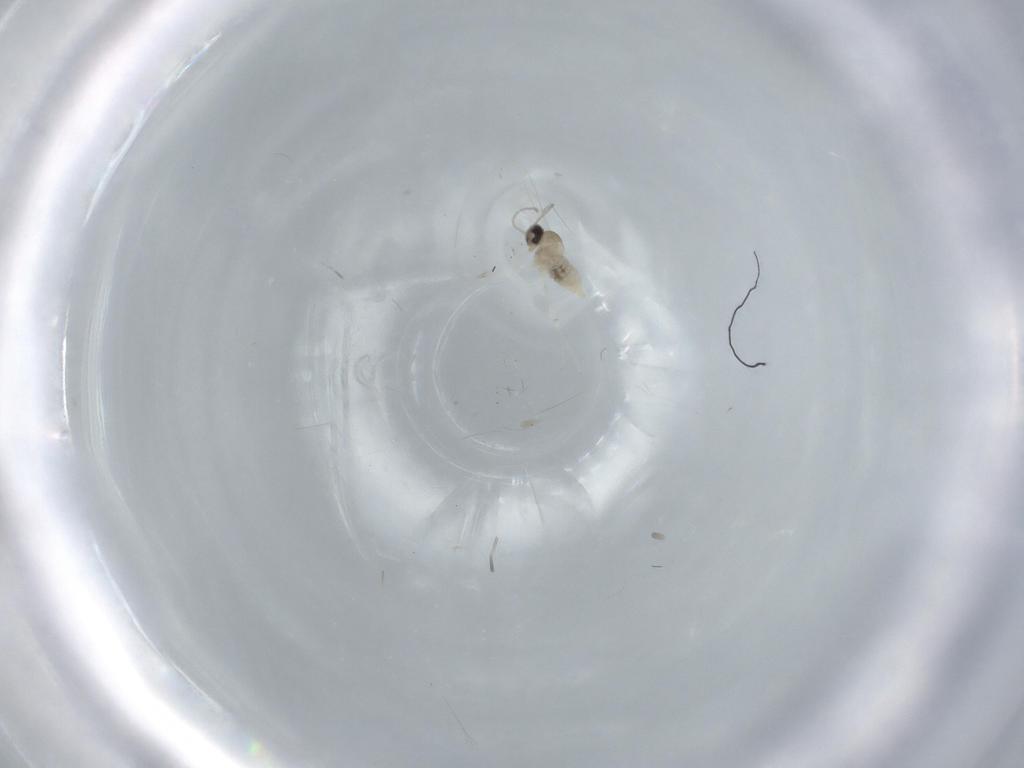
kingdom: Animalia
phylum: Arthropoda
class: Insecta
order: Diptera
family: Cecidomyiidae
